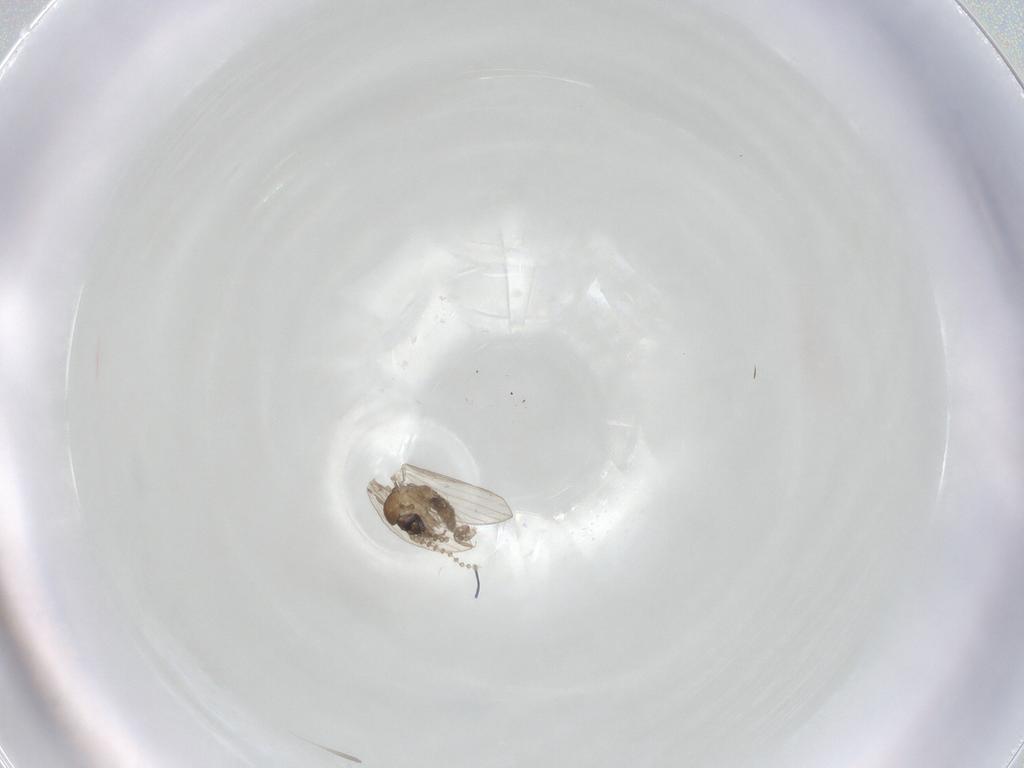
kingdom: Animalia
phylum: Arthropoda
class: Insecta
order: Diptera
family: Psychodidae
